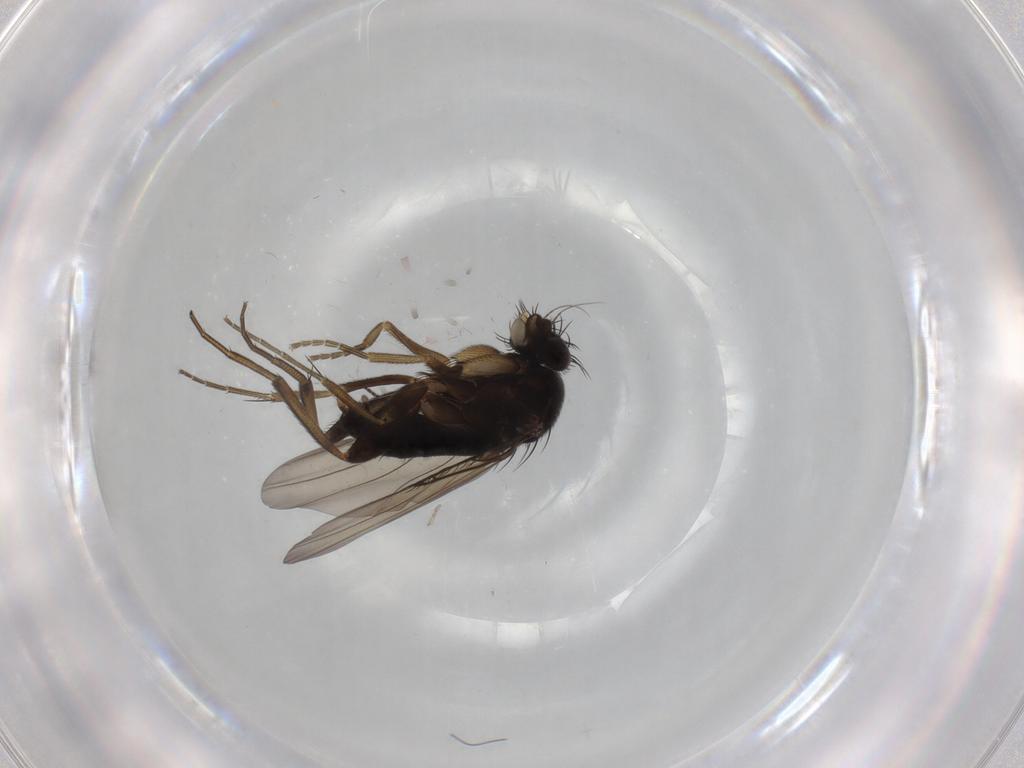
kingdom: Animalia
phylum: Arthropoda
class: Insecta
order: Diptera
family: Phoridae
